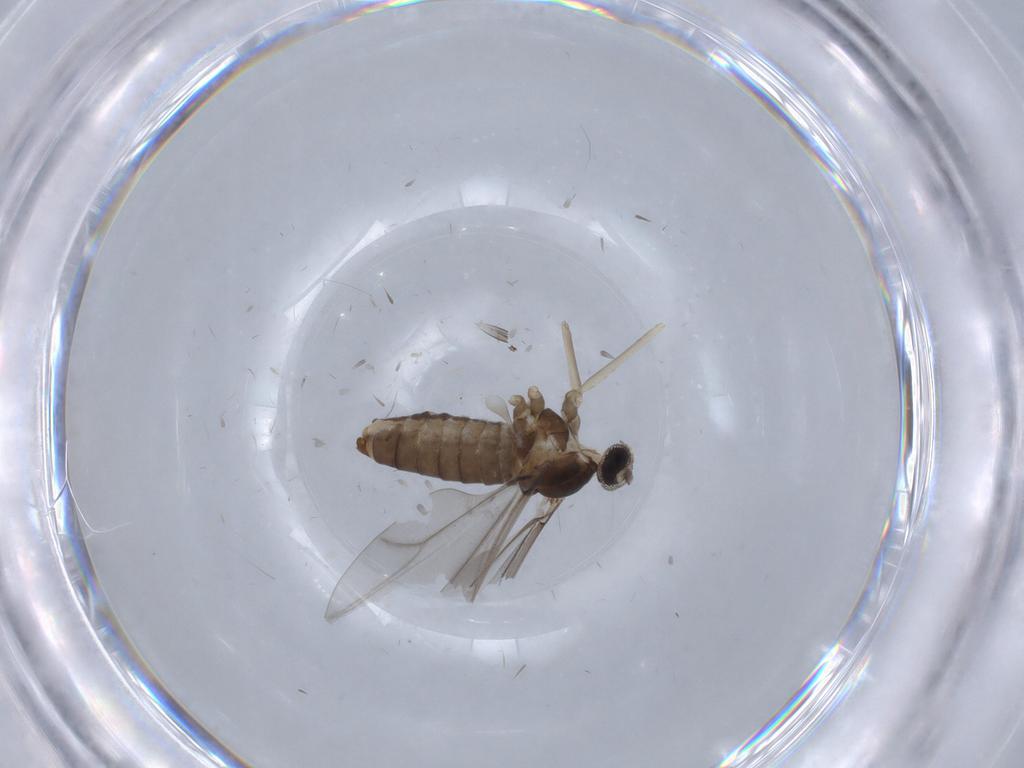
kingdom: Animalia
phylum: Arthropoda
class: Insecta
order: Diptera
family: Cecidomyiidae
